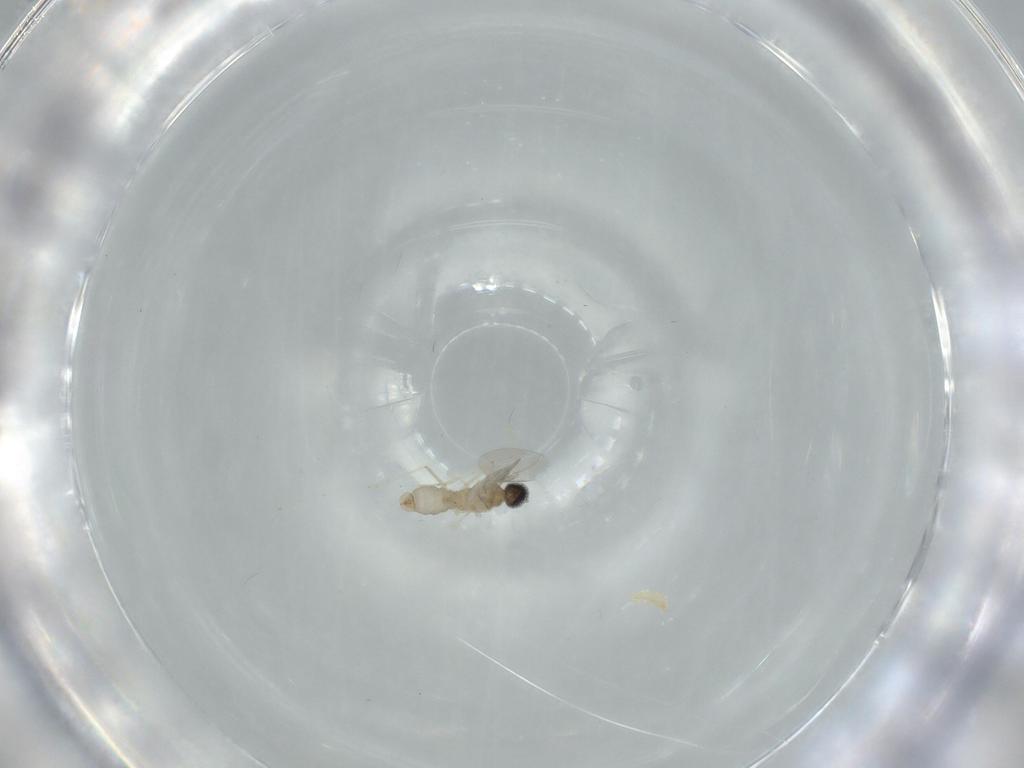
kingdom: Animalia
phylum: Arthropoda
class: Insecta
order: Diptera
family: Cecidomyiidae
